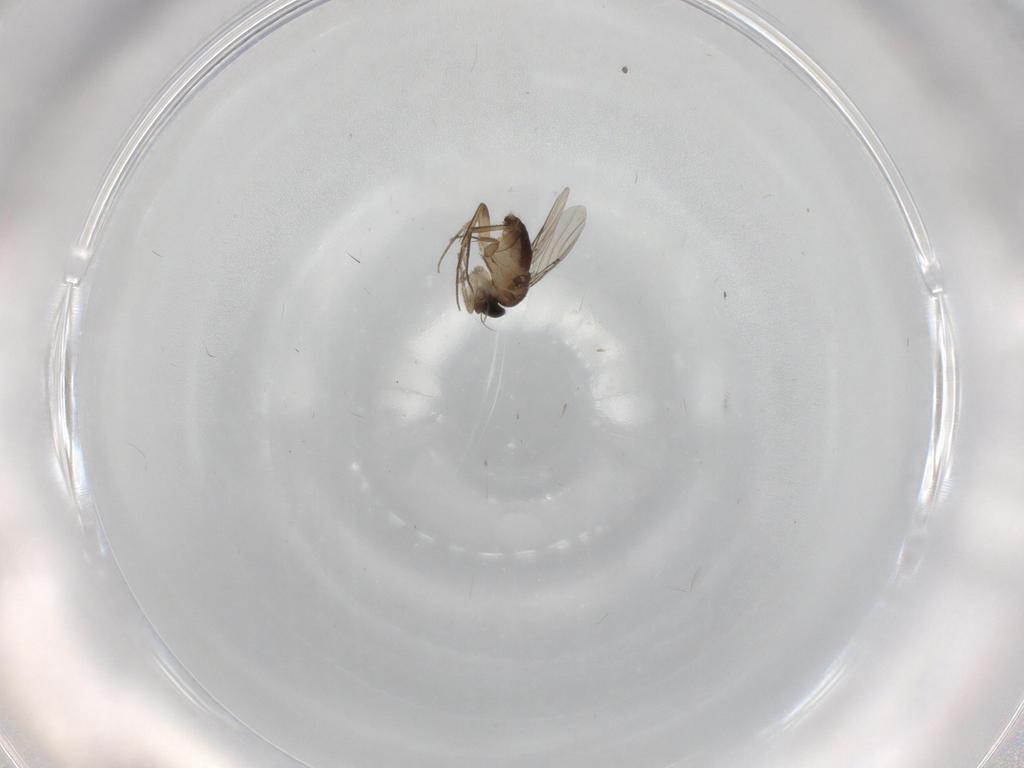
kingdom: Animalia
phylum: Arthropoda
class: Insecta
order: Diptera
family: Phoridae
